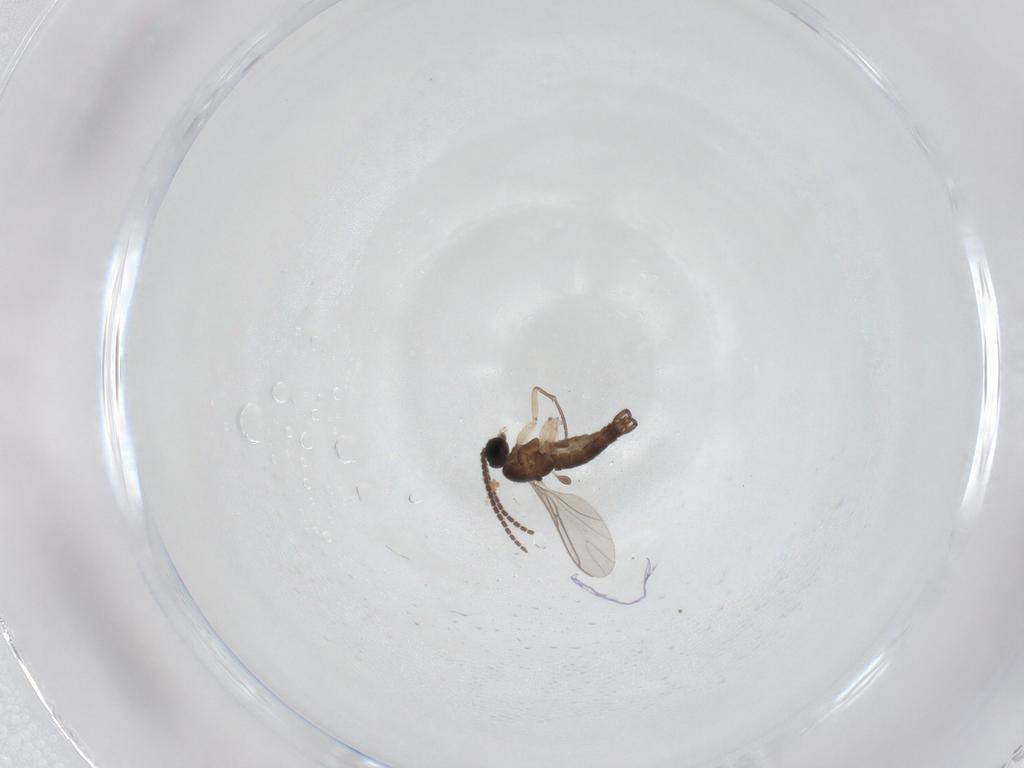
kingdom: Animalia
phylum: Arthropoda
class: Insecta
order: Diptera
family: Sciaridae
